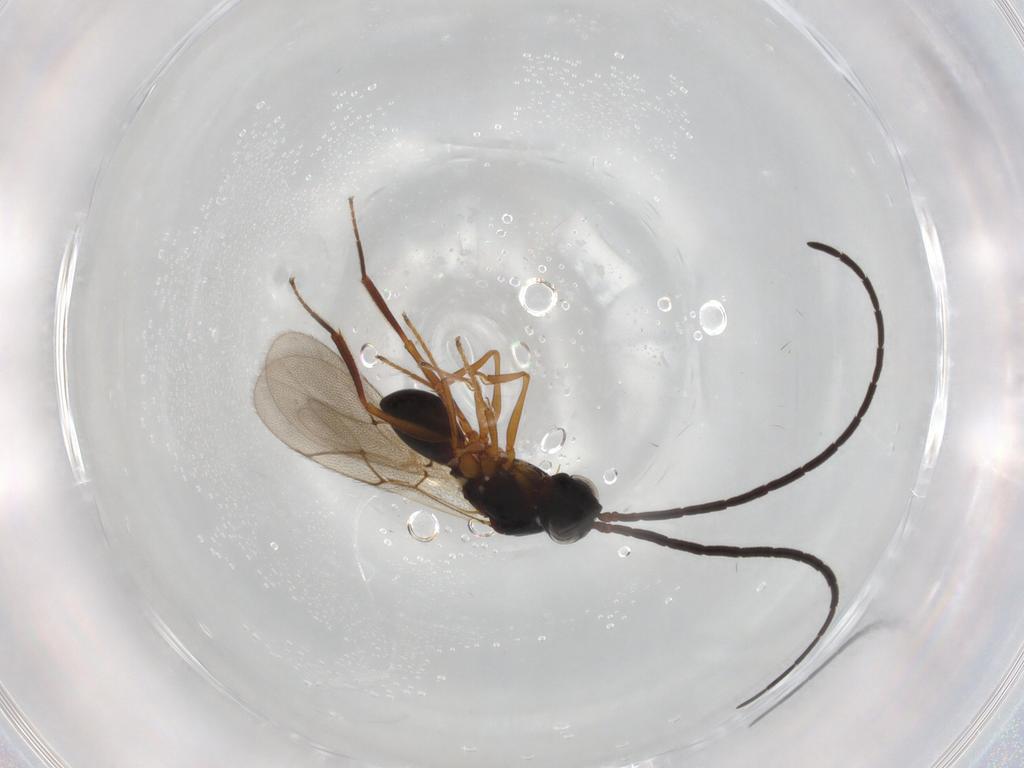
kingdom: Animalia
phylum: Arthropoda
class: Insecta
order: Hymenoptera
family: Figitidae
